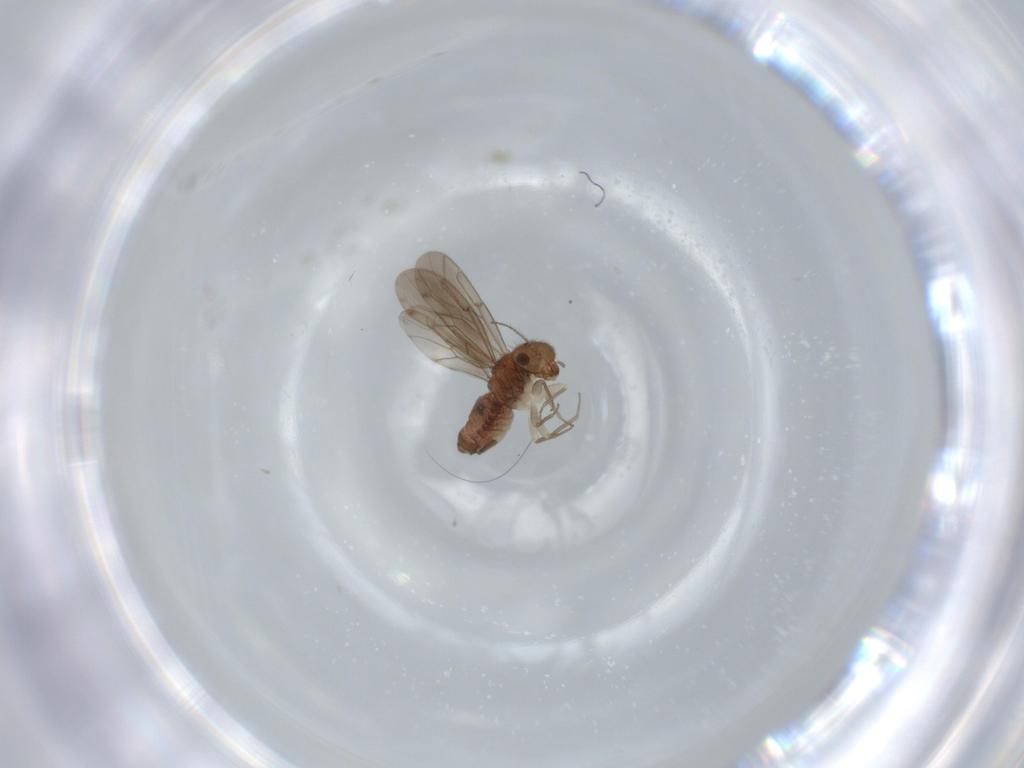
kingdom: Animalia
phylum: Arthropoda
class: Insecta
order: Psocodea
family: Ectopsocidae
